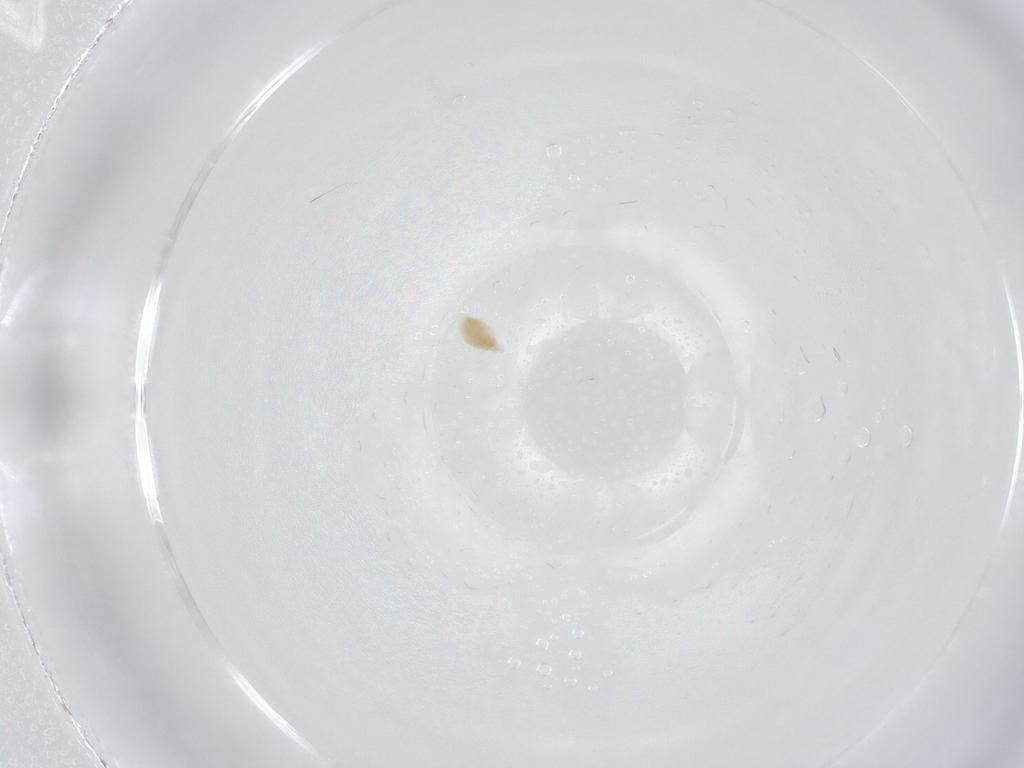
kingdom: Animalia
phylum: Arthropoda
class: Arachnida
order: Trombidiformes
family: Eupodidae
